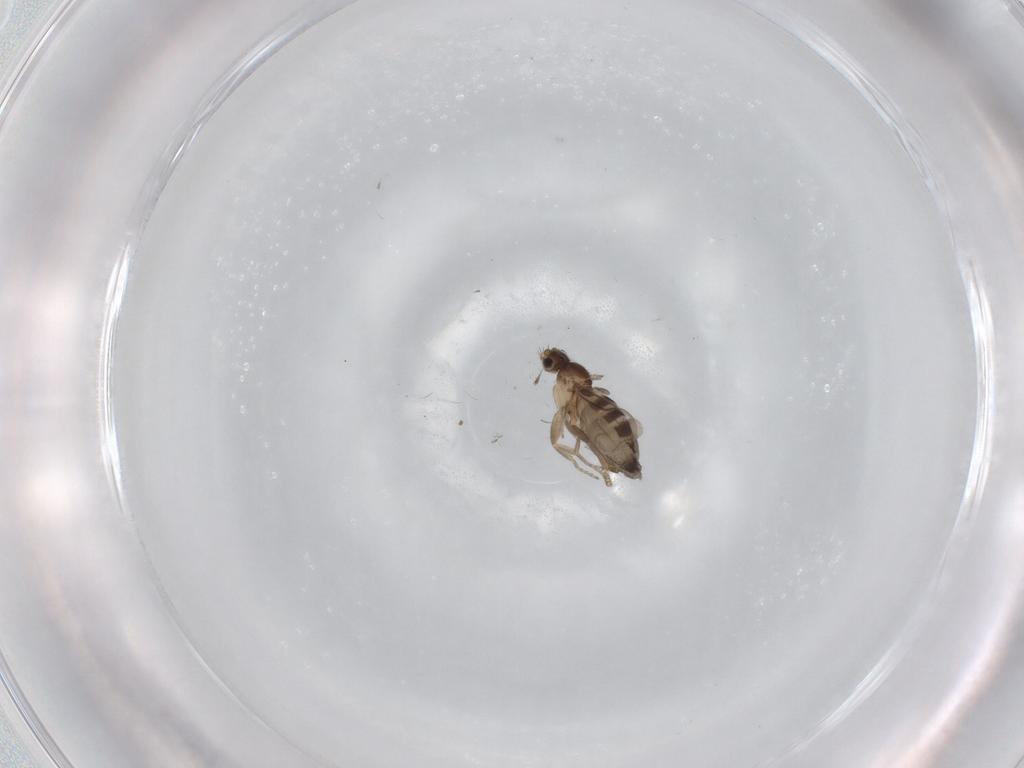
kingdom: Animalia
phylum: Arthropoda
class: Insecta
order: Diptera
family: Phoridae
